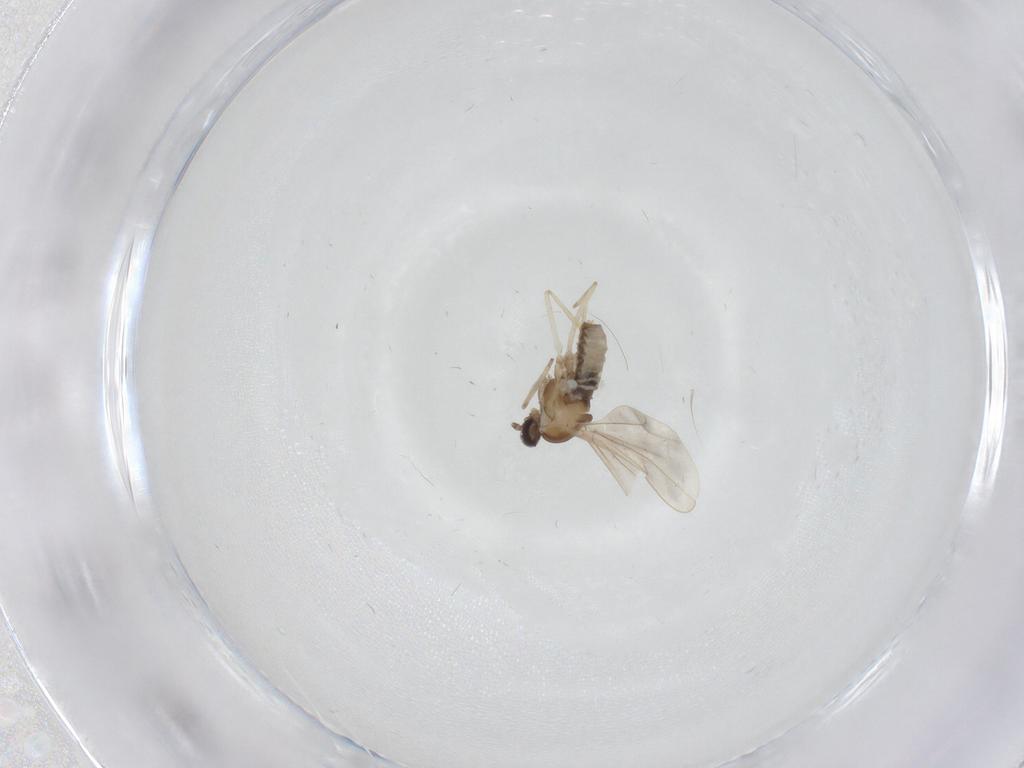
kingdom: Animalia
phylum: Arthropoda
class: Insecta
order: Diptera
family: Cecidomyiidae
